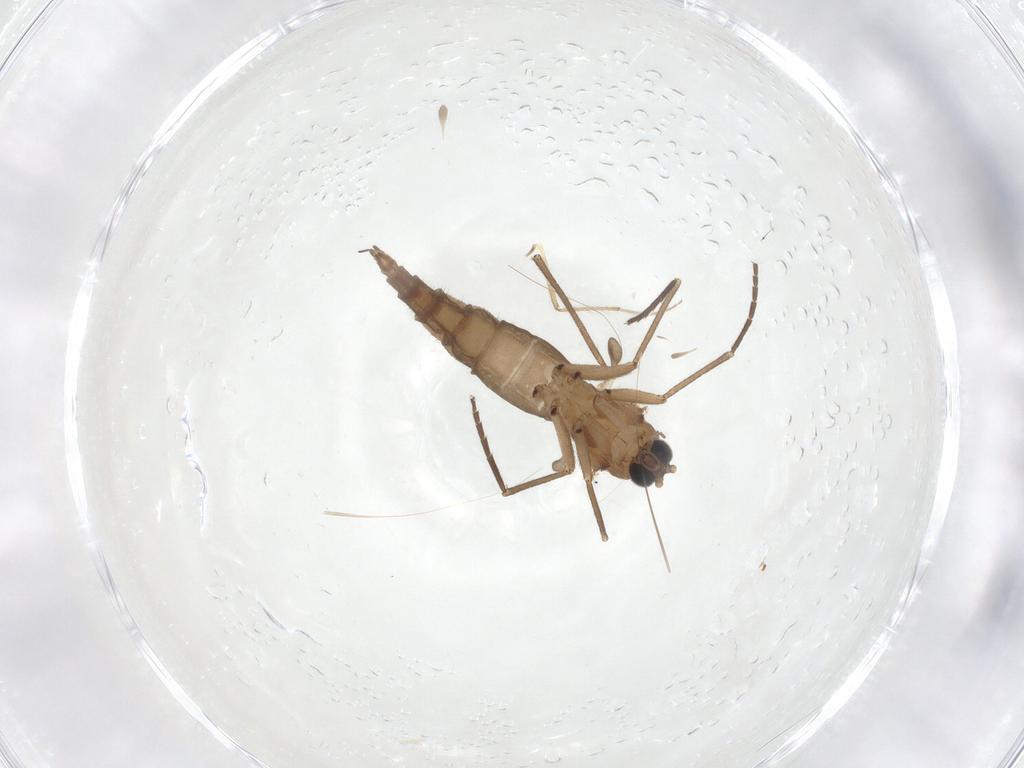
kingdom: Animalia
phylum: Arthropoda
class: Insecta
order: Diptera
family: Sciaridae
